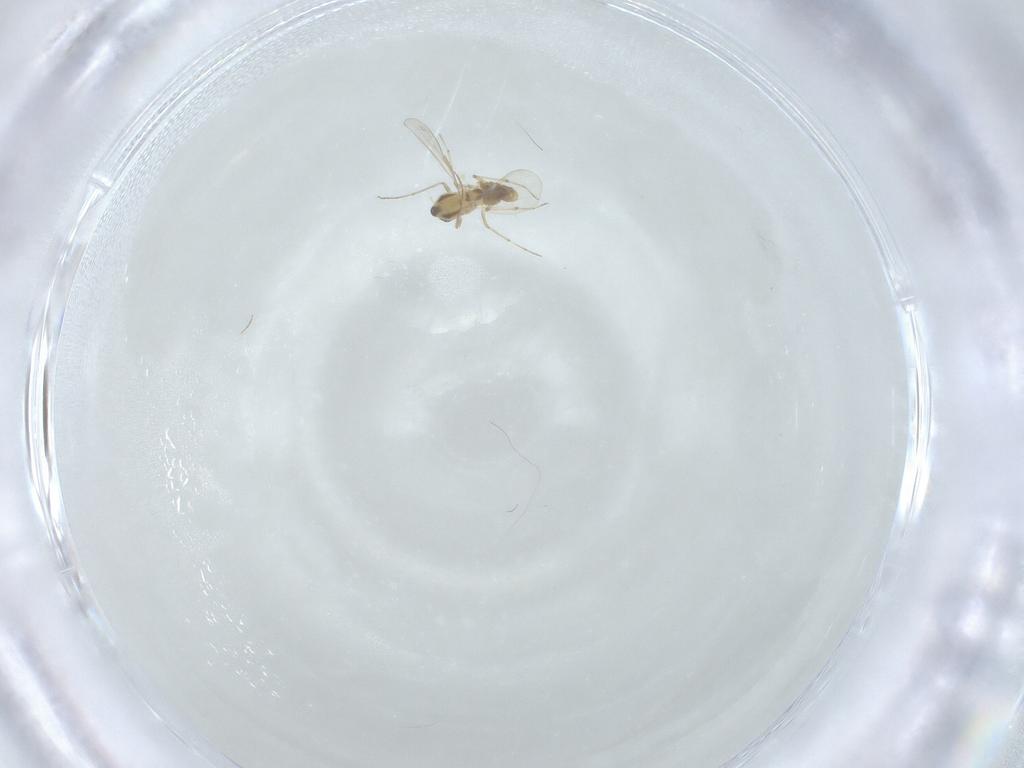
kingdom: Animalia
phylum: Arthropoda
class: Insecta
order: Diptera
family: Chironomidae
